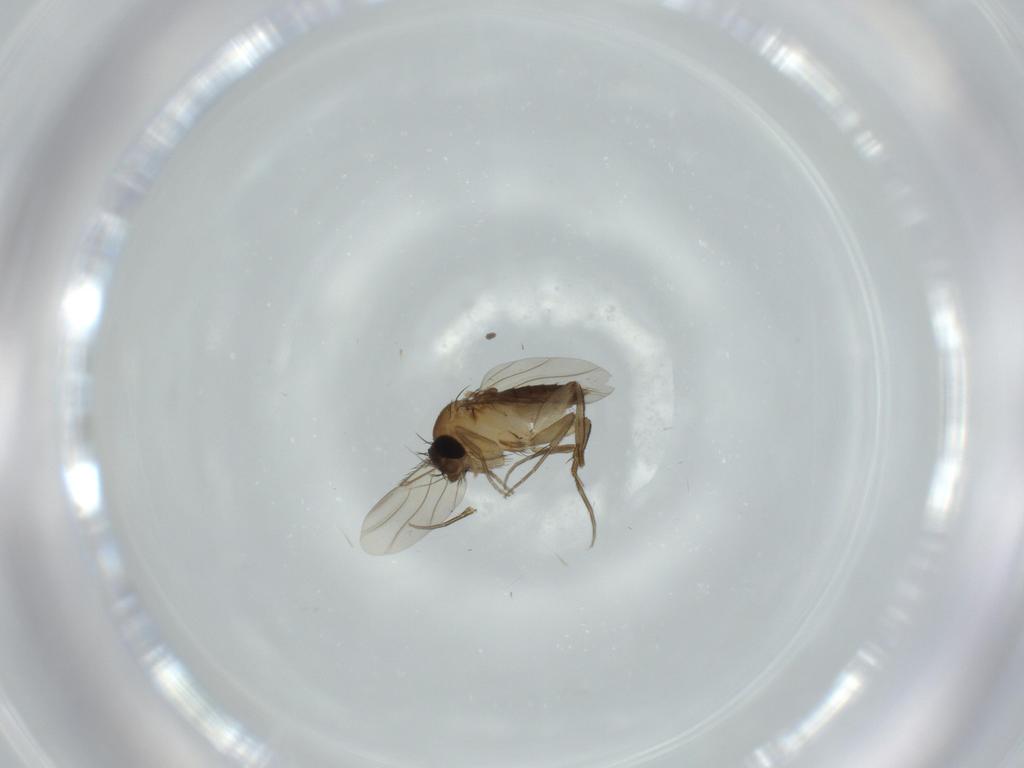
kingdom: Animalia
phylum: Arthropoda
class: Insecta
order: Diptera
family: Phoridae
